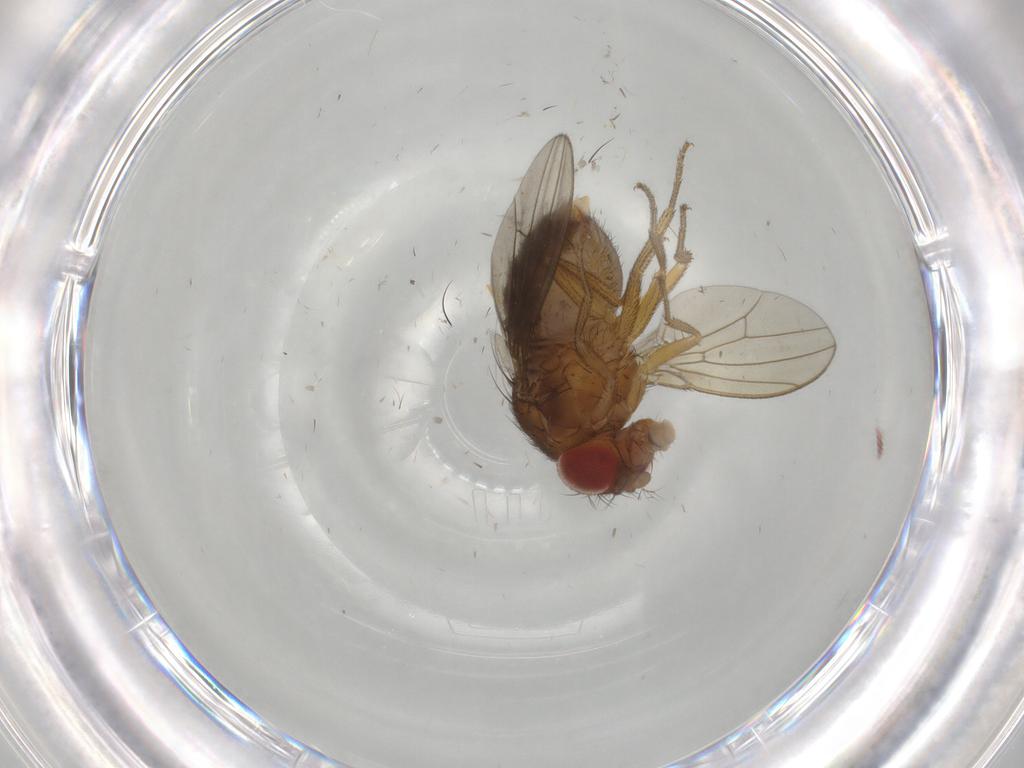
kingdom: Animalia
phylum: Arthropoda
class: Insecta
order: Diptera
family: Drosophilidae
